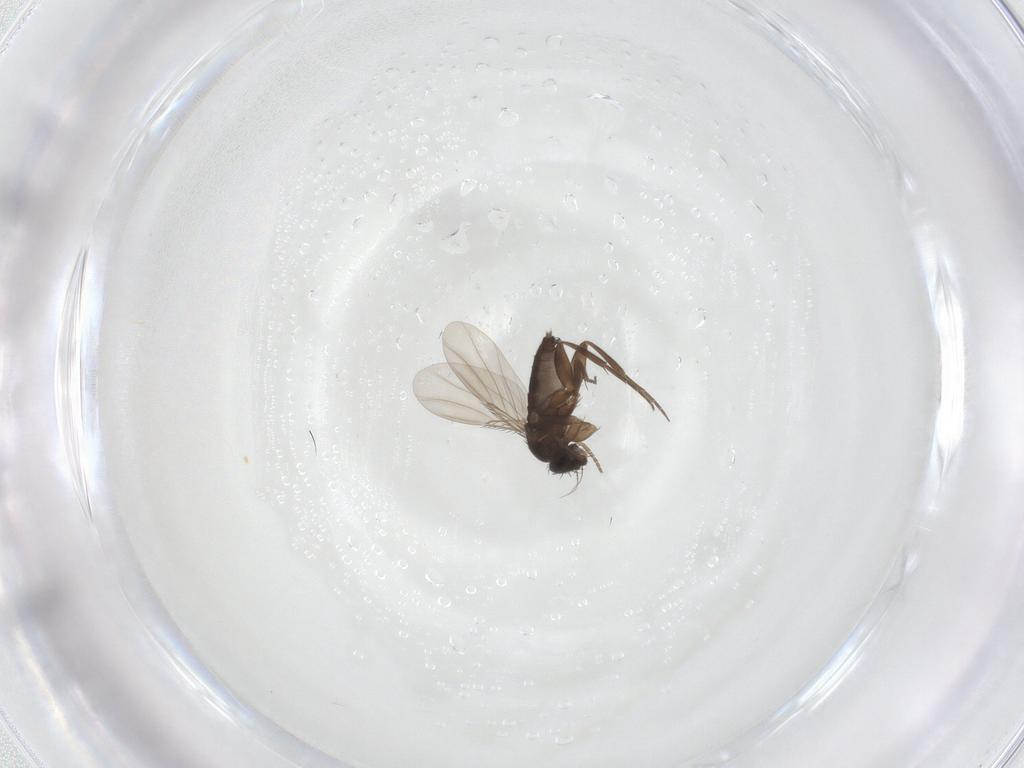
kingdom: Animalia
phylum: Arthropoda
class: Insecta
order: Diptera
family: Phoridae
